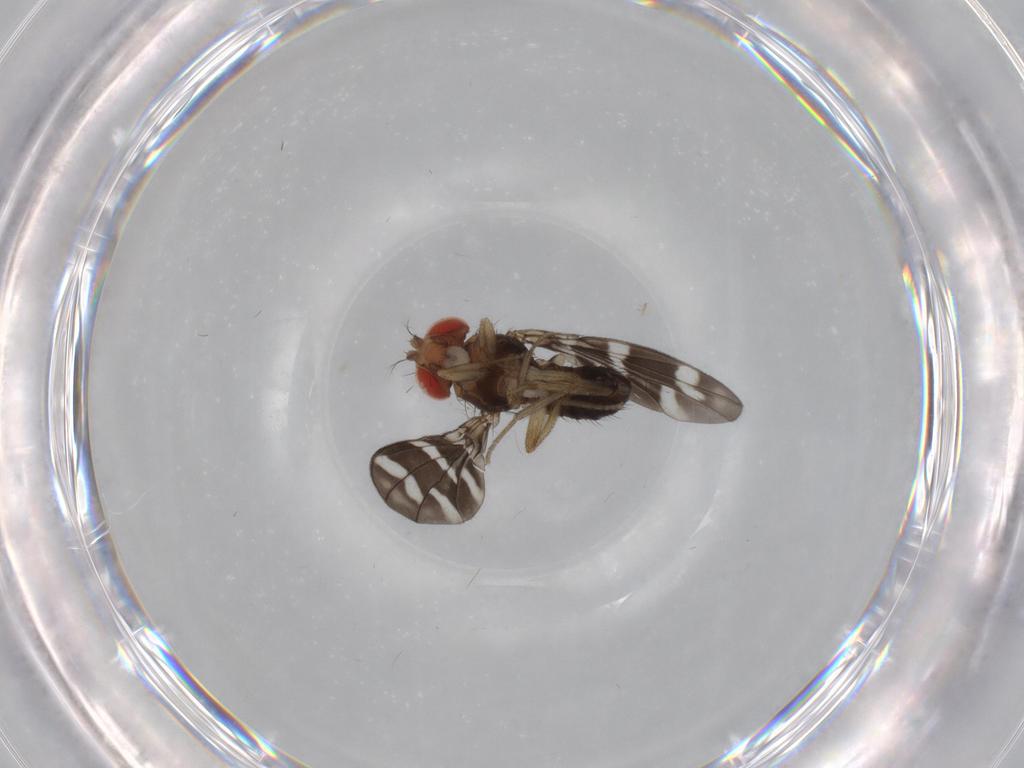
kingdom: Animalia
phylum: Arthropoda
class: Insecta
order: Diptera
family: Drosophilidae
